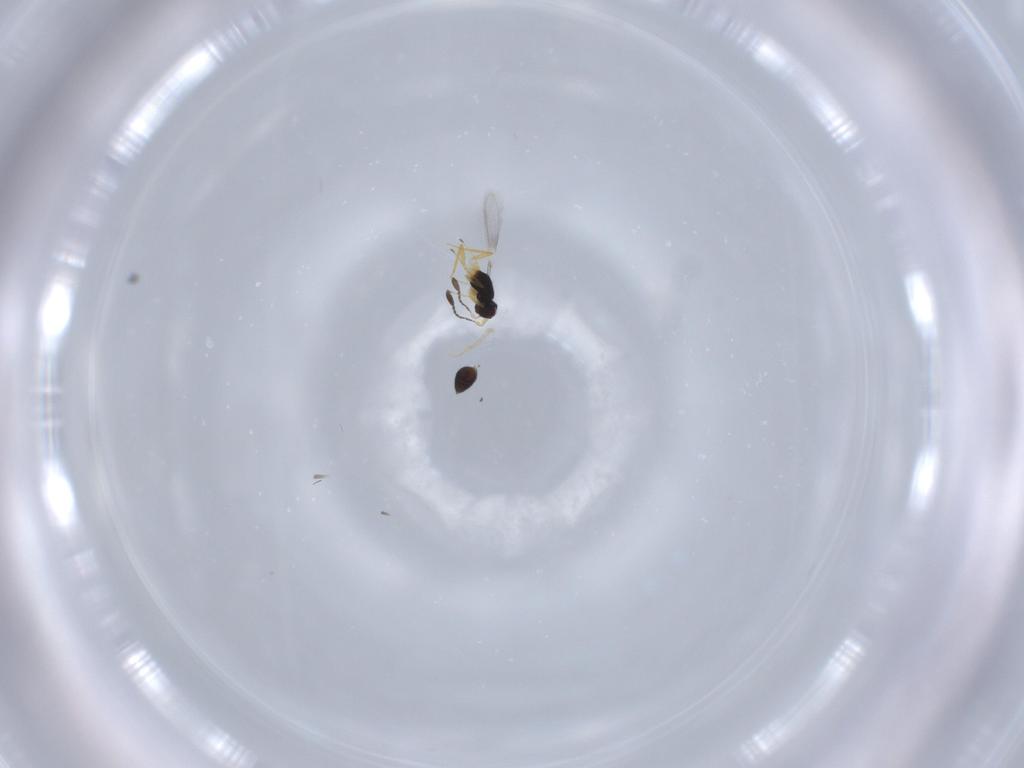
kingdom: Animalia
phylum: Arthropoda
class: Insecta
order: Hymenoptera
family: Mymaridae
